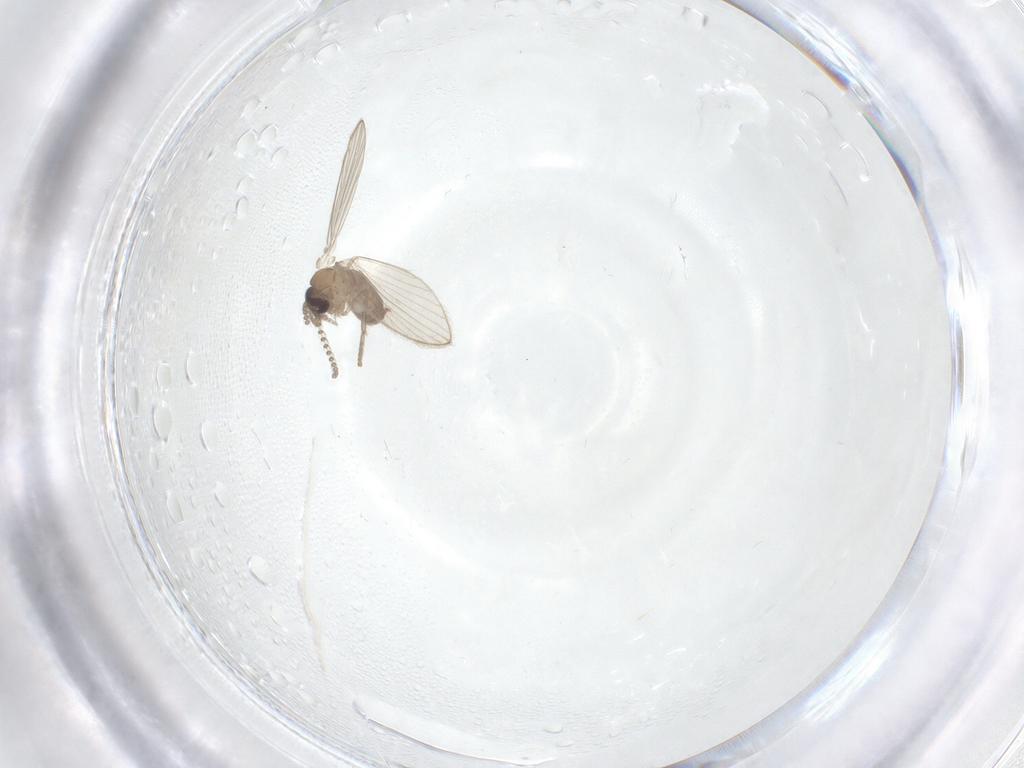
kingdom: Animalia
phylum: Arthropoda
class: Insecta
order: Diptera
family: Psychodidae
